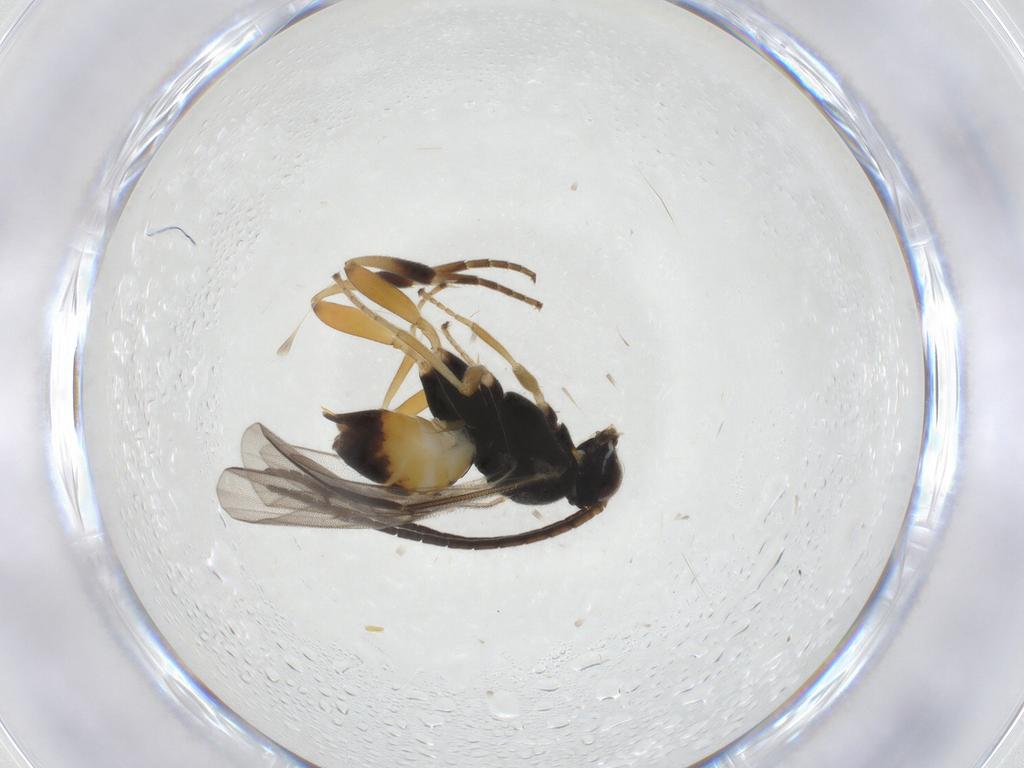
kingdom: Animalia
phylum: Arthropoda
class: Insecta
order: Hymenoptera
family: Braconidae
